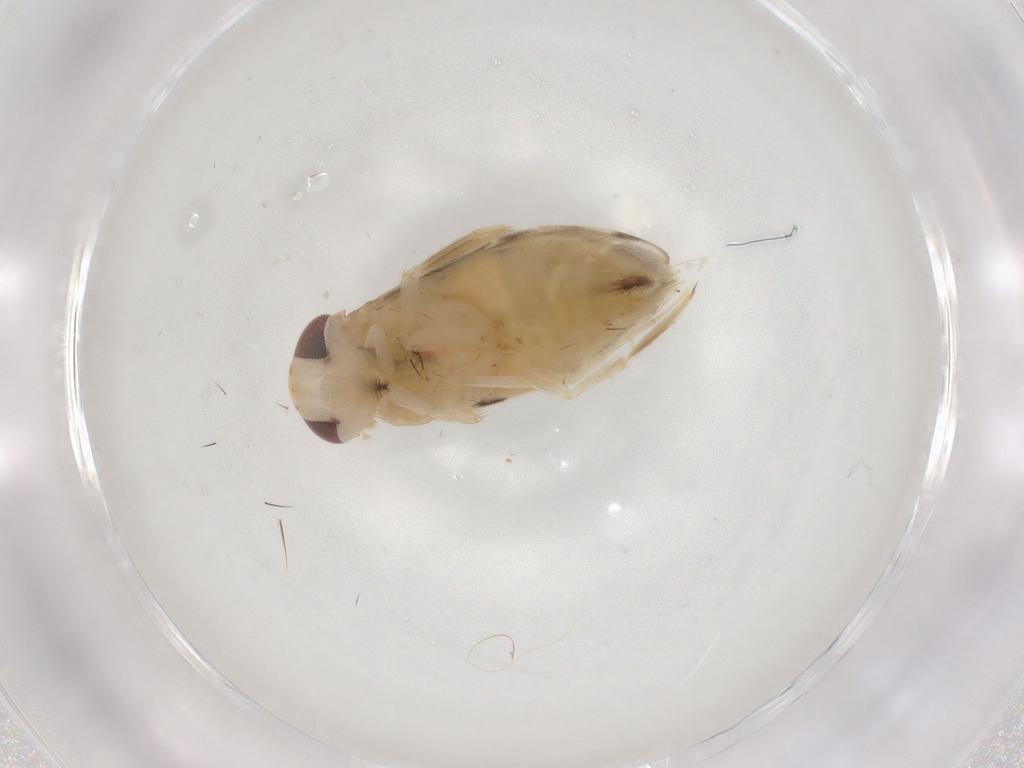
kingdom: Animalia
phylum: Arthropoda
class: Insecta
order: Hemiptera
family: Corixidae
